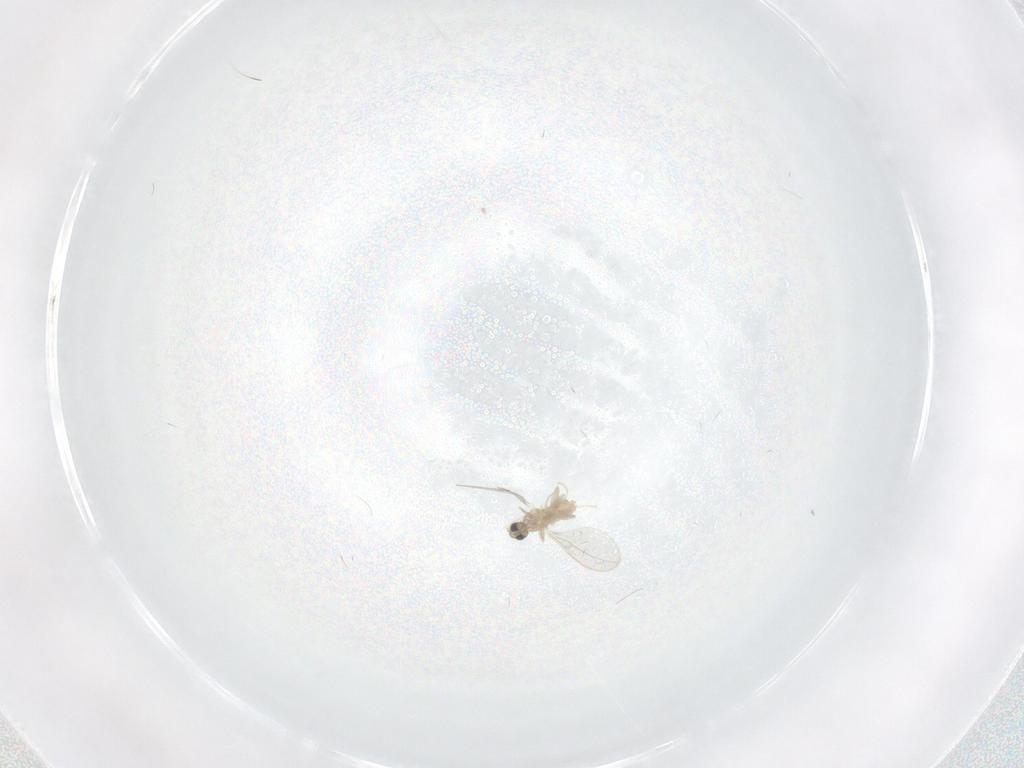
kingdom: Animalia
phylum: Arthropoda
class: Insecta
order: Diptera
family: Cecidomyiidae
